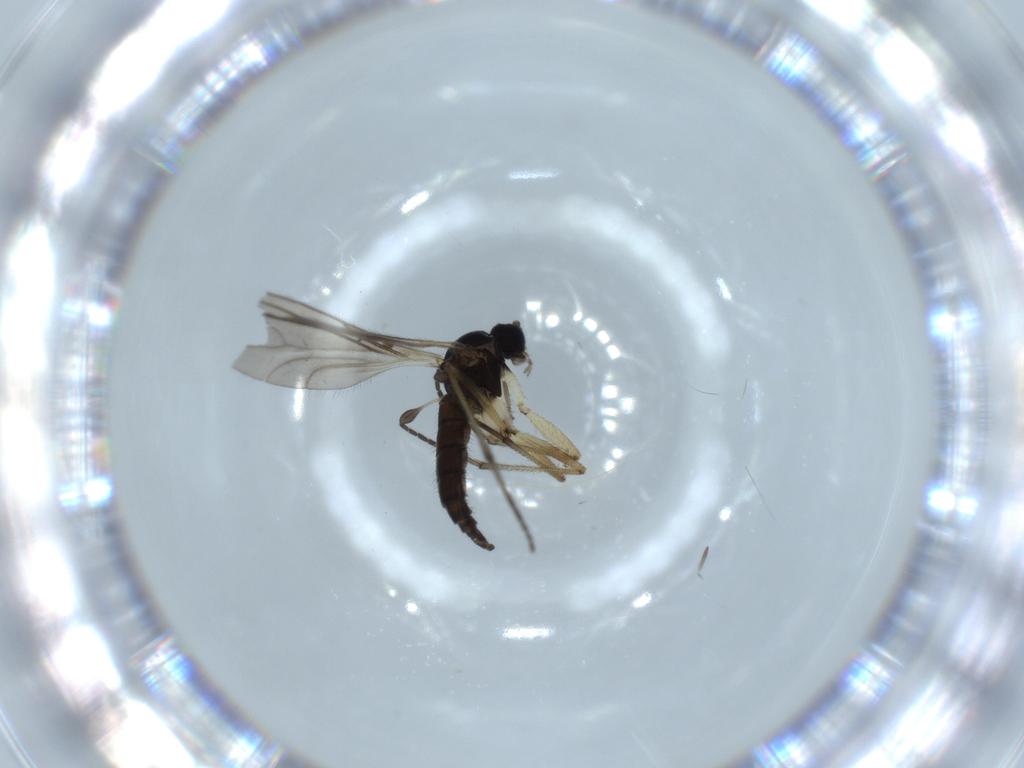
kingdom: Animalia
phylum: Arthropoda
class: Insecta
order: Diptera
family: Sciaridae
